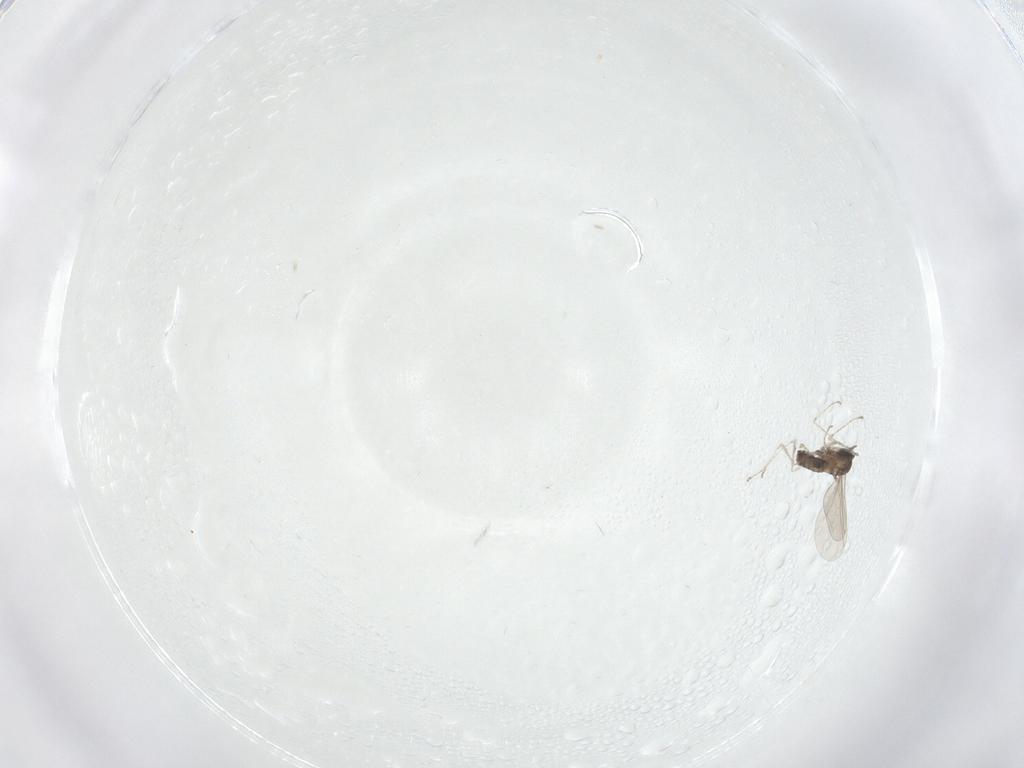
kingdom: Animalia
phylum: Arthropoda
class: Insecta
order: Diptera
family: Cecidomyiidae
